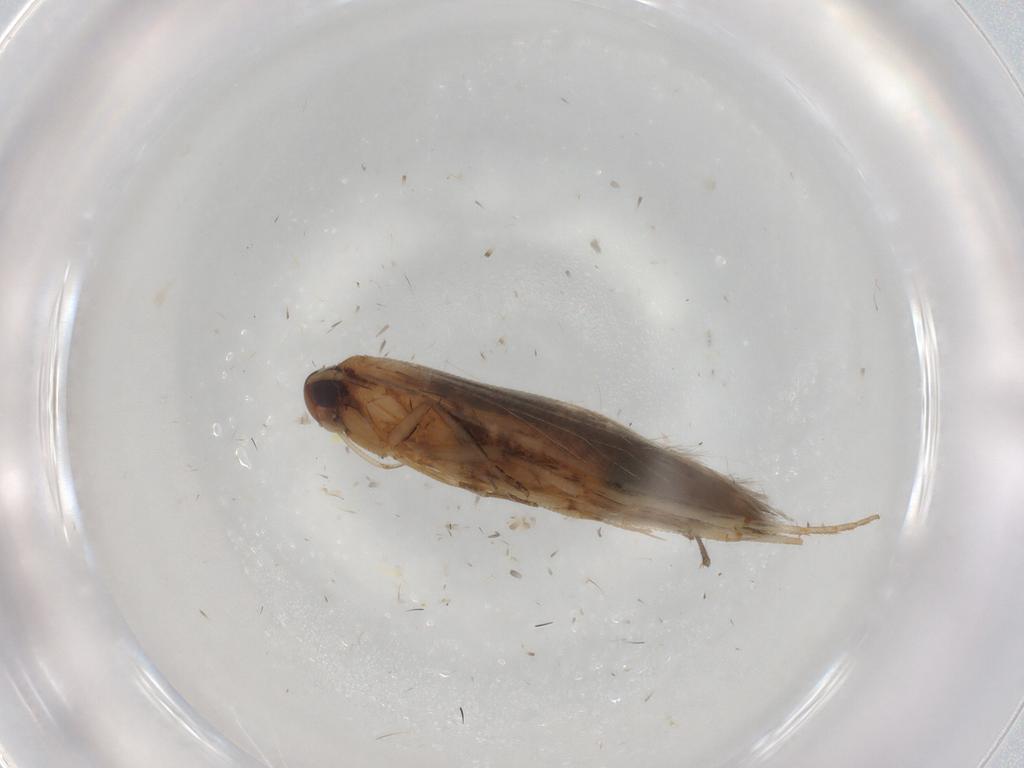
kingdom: Animalia
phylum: Arthropoda
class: Insecta
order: Lepidoptera
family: Cosmopterigidae
